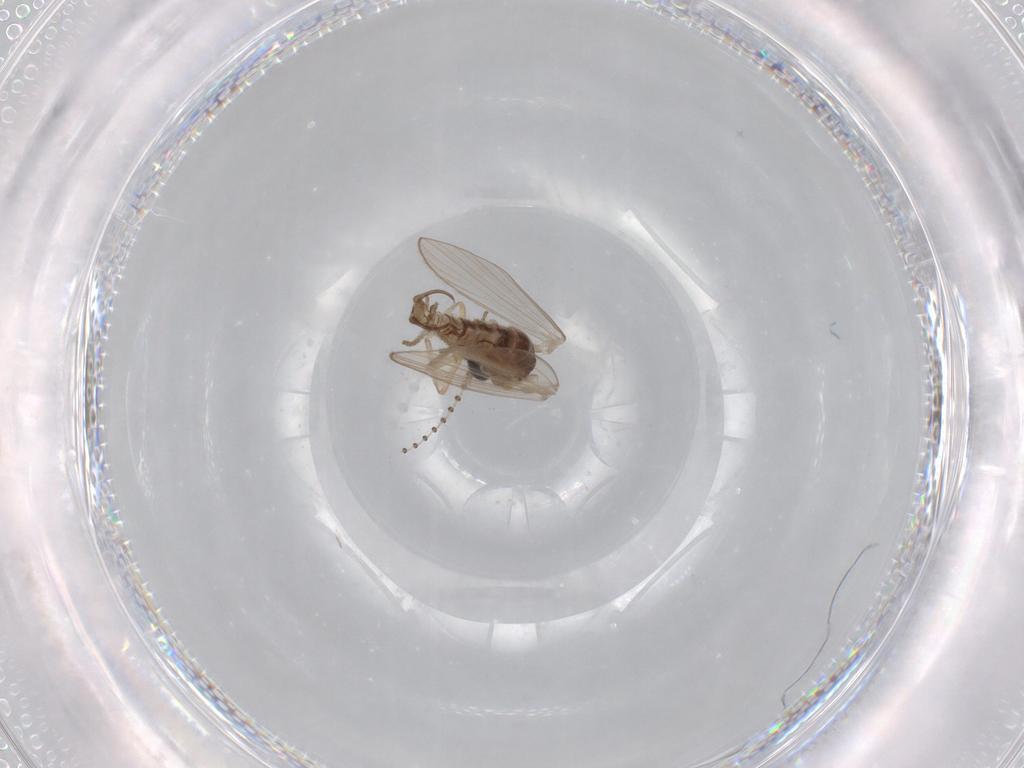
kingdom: Animalia
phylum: Arthropoda
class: Insecta
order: Diptera
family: Psychodidae
